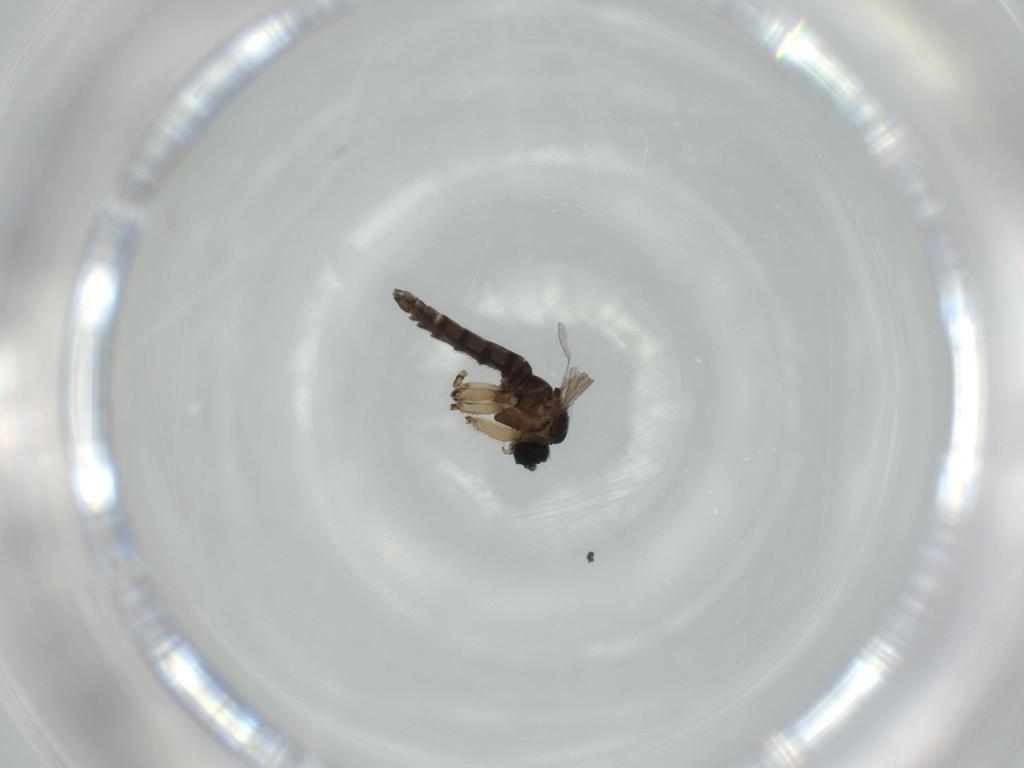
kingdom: Animalia
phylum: Arthropoda
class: Insecta
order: Diptera
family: Sciaridae
